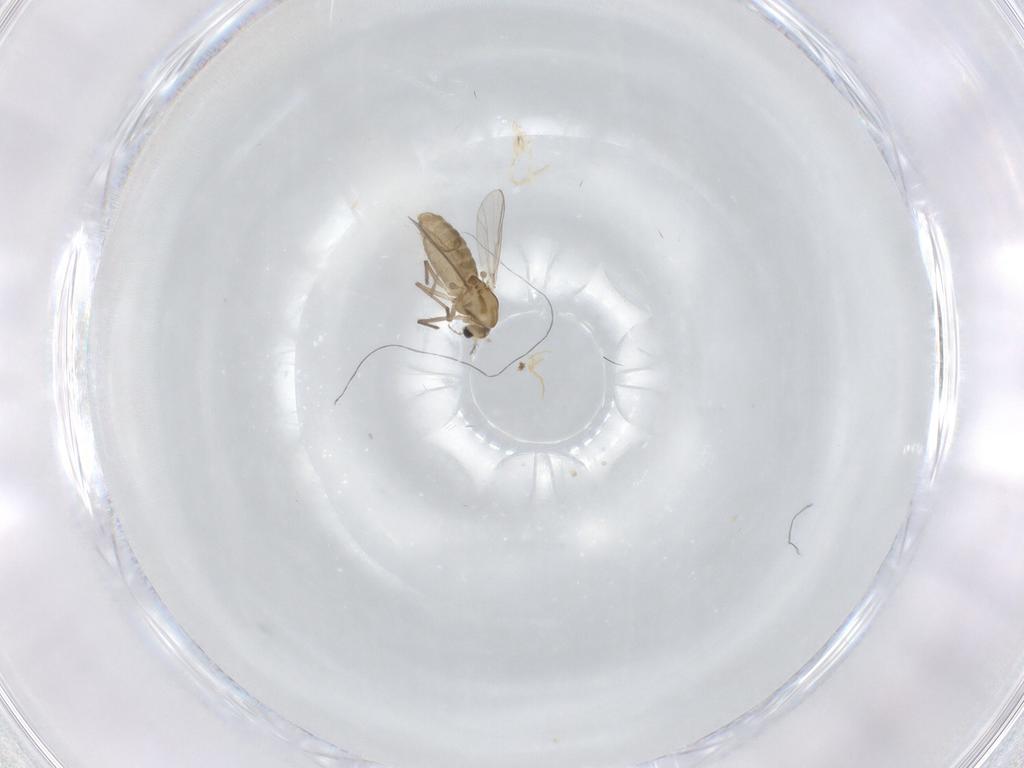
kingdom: Animalia
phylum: Arthropoda
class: Insecta
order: Diptera
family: Chironomidae
